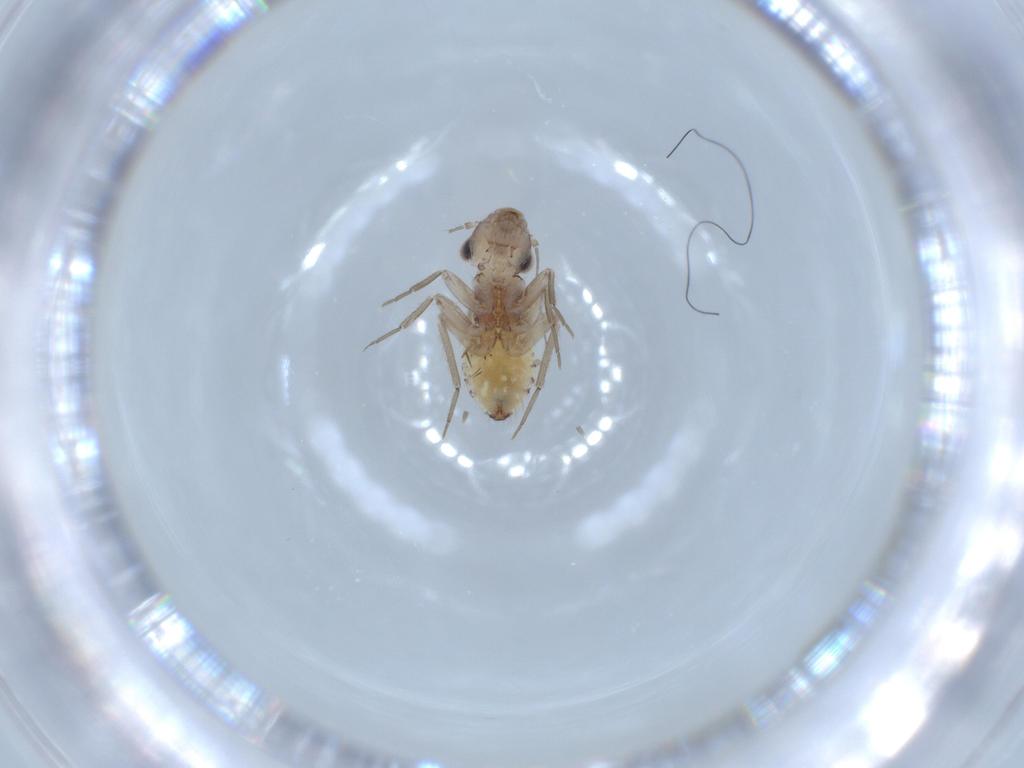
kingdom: Animalia
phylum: Arthropoda
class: Insecta
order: Psocodea
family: Lepidopsocidae
